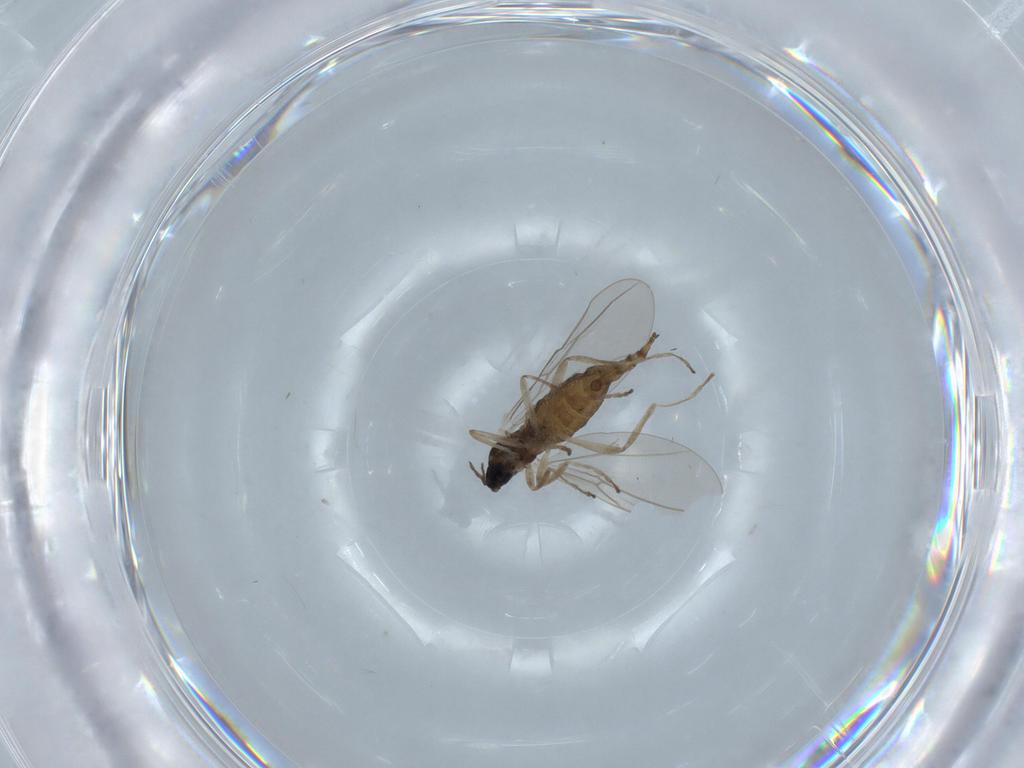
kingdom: Animalia
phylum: Arthropoda
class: Insecta
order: Diptera
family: Cecidomyiidae
